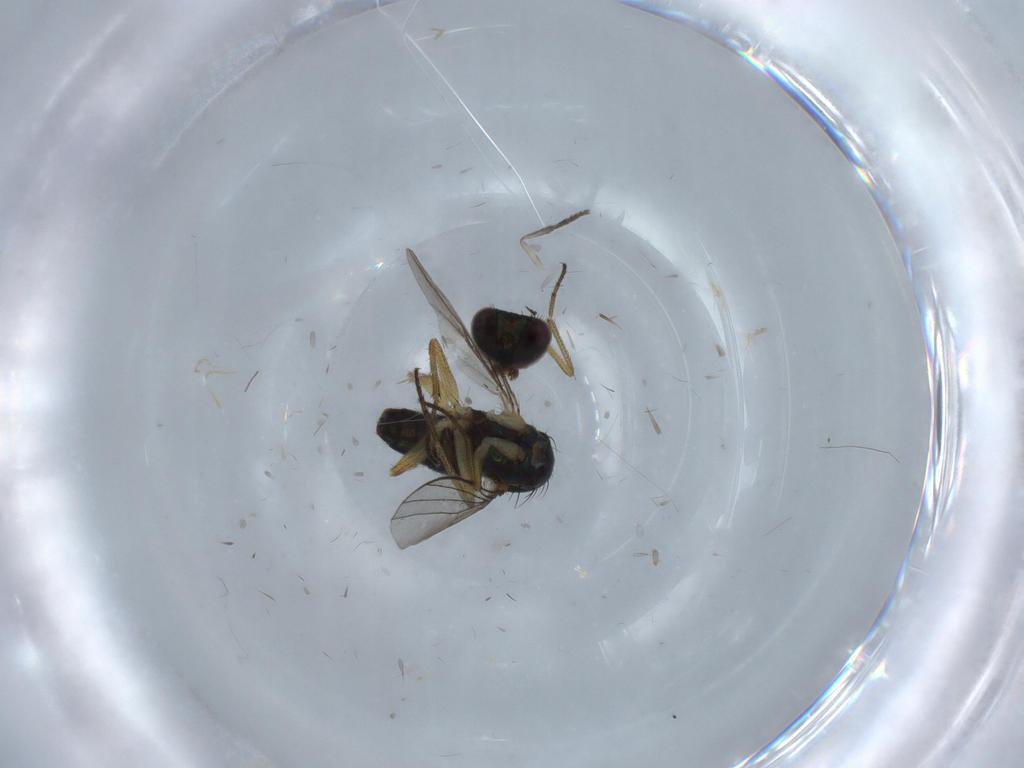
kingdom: Animalia
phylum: Arthropoda
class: Insecta
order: Diptera
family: Psychodidae
